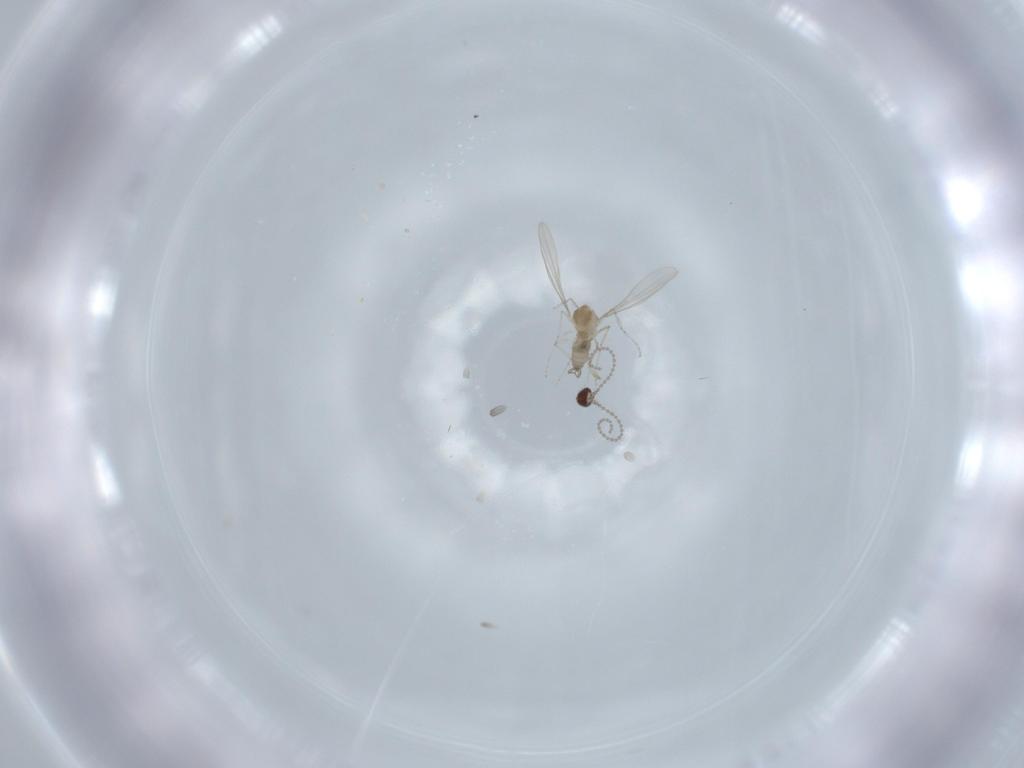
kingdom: Animalia
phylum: Arthropoda
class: Insecta
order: Diptera
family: Cecidomyiidae
